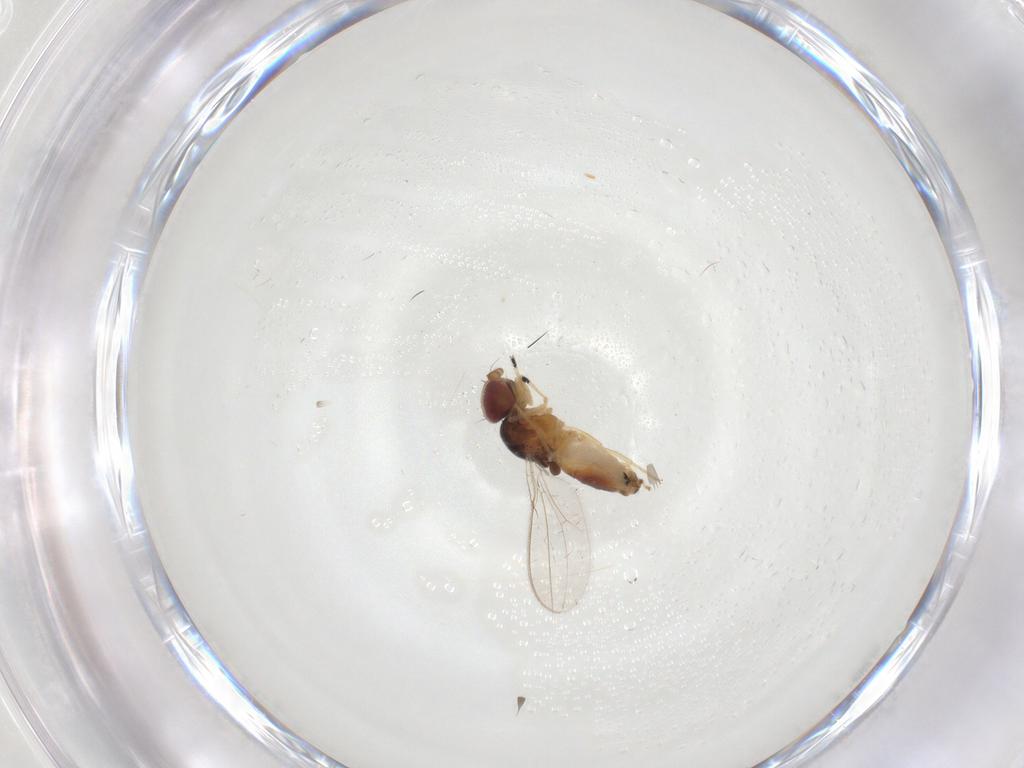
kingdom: Animalia
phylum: Arthropoda
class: Insecta
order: Diptera
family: Asteiidae
